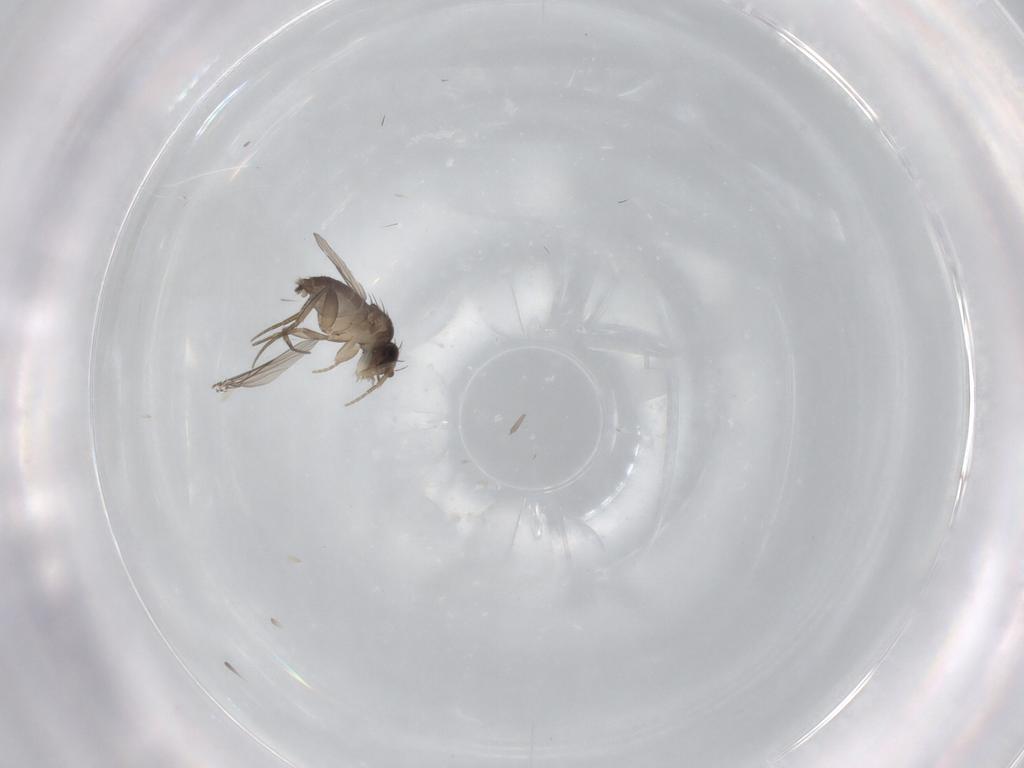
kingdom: Animalia
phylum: Arthropoda
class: Insecta
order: Diptera
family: Phoridae
